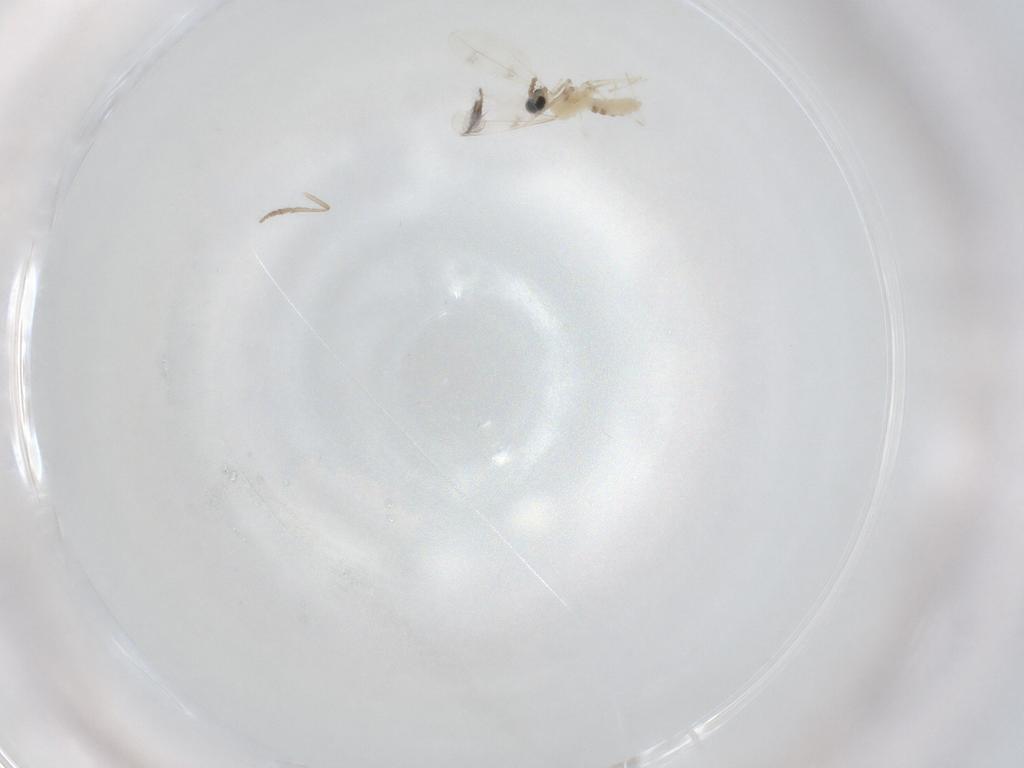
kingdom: Animalia
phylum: Arthropoda
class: Insecta
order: Diptera
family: Cecidomyiidae
